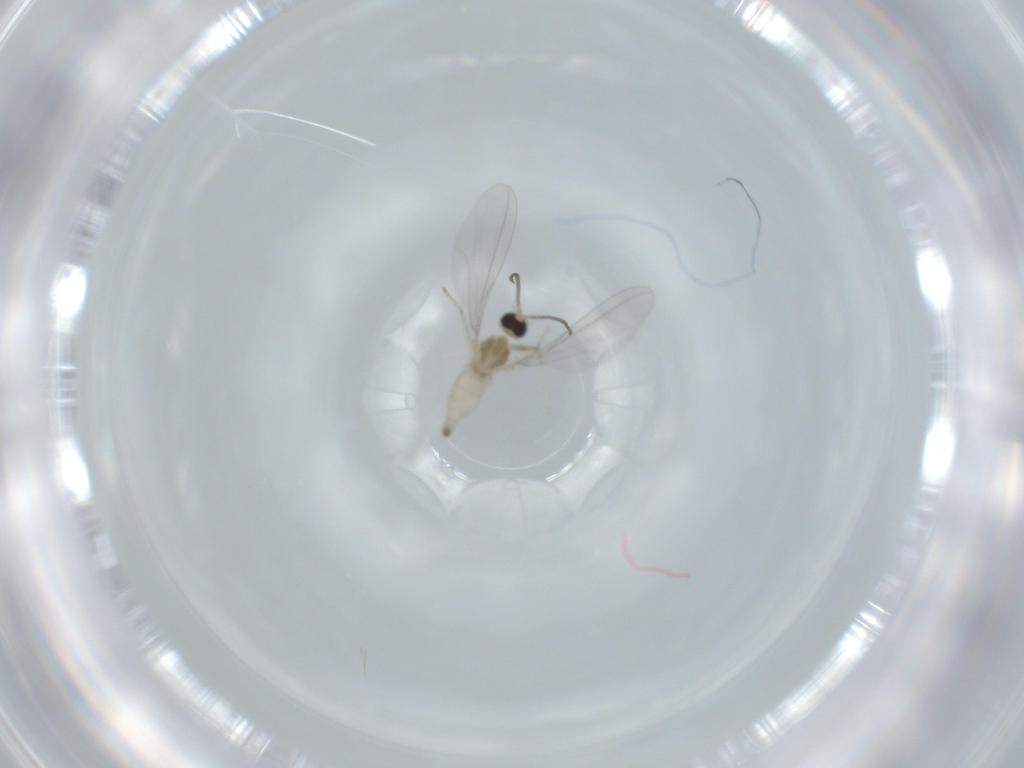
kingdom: Animalia
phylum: Arthropoda
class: Insecta
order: Diptera
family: Cecidomyiidae
